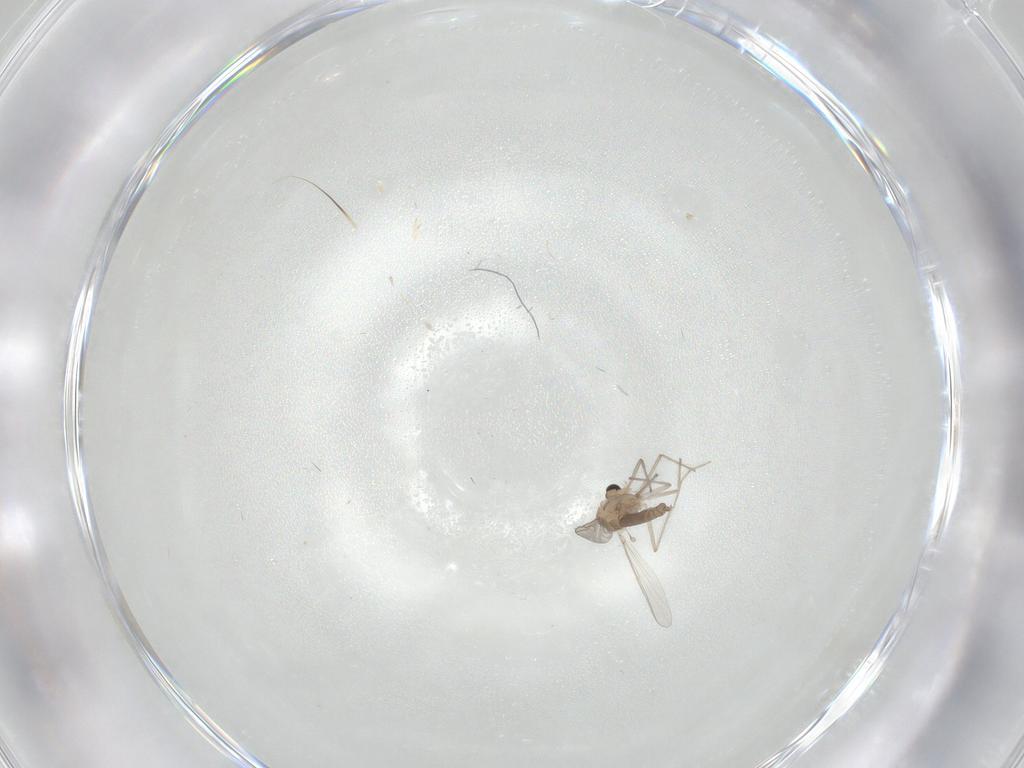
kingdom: Animalia
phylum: Arthropoda
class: Insecta
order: Diptera
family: Chironomidae
